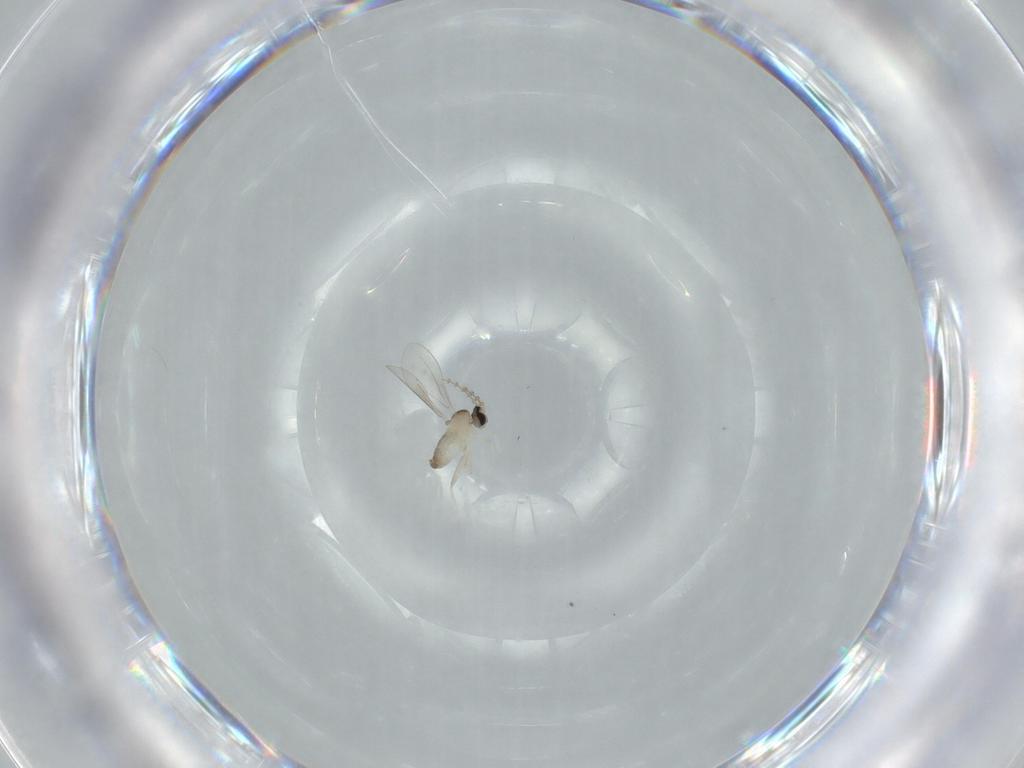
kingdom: Animalia
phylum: Arthropoda
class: Insecta
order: Diptera
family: Cecidomyiidae
